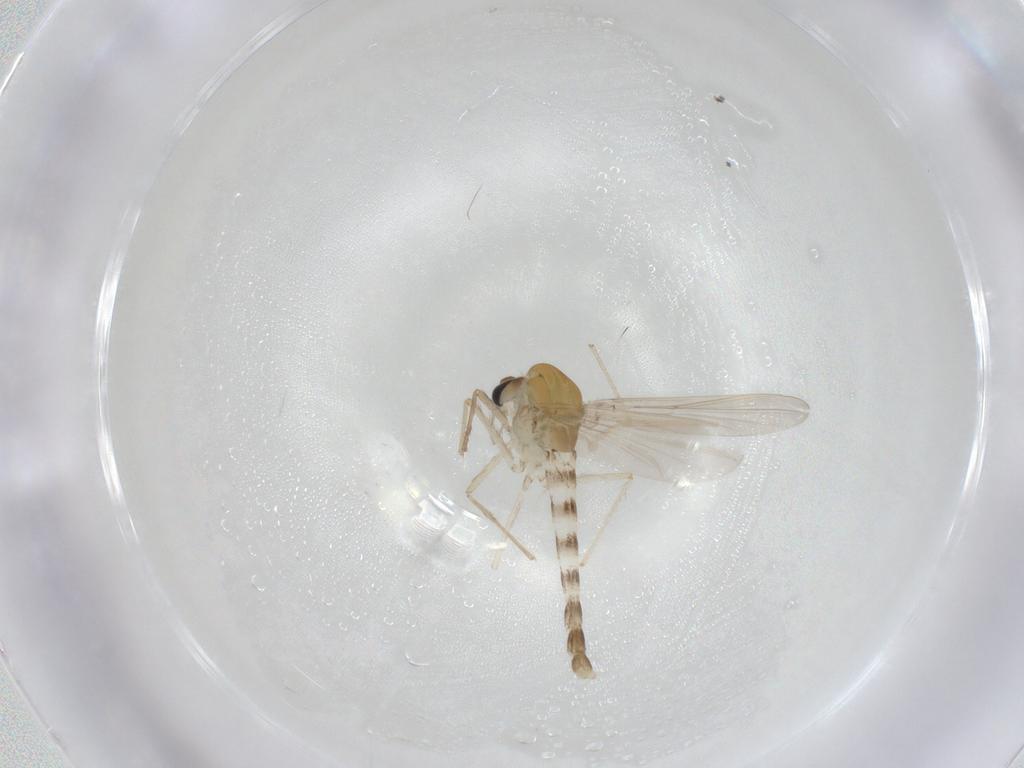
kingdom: Animalia
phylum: Arthropoda
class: Insecta
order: Diptera
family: Chironomidae
